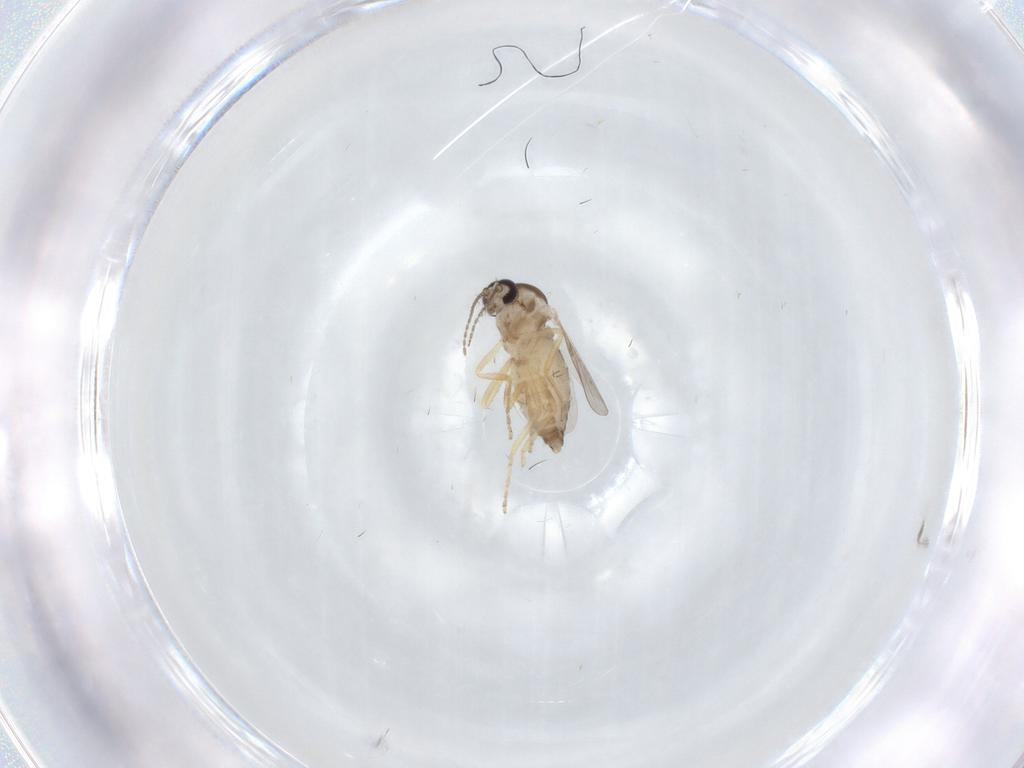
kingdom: Animalia
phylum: Arthropoda
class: Insecta
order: Diptera
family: Ceratopogonidae
